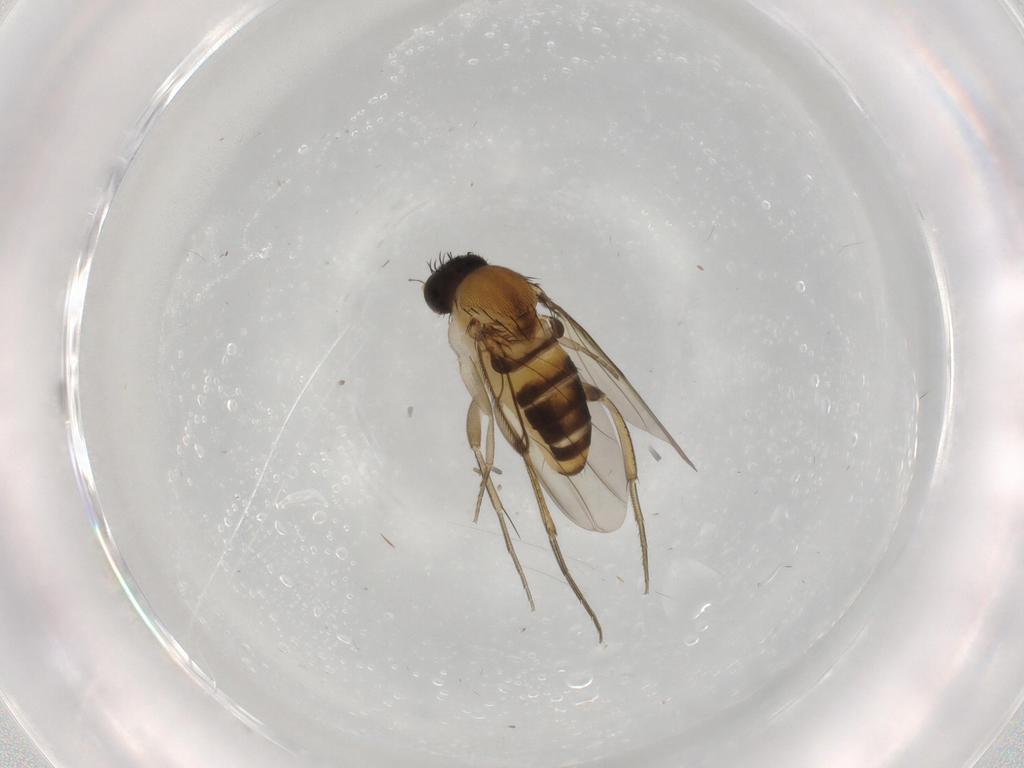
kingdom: Animalia
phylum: Arthropoda
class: Insecta
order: Diptera
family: Phoridae
